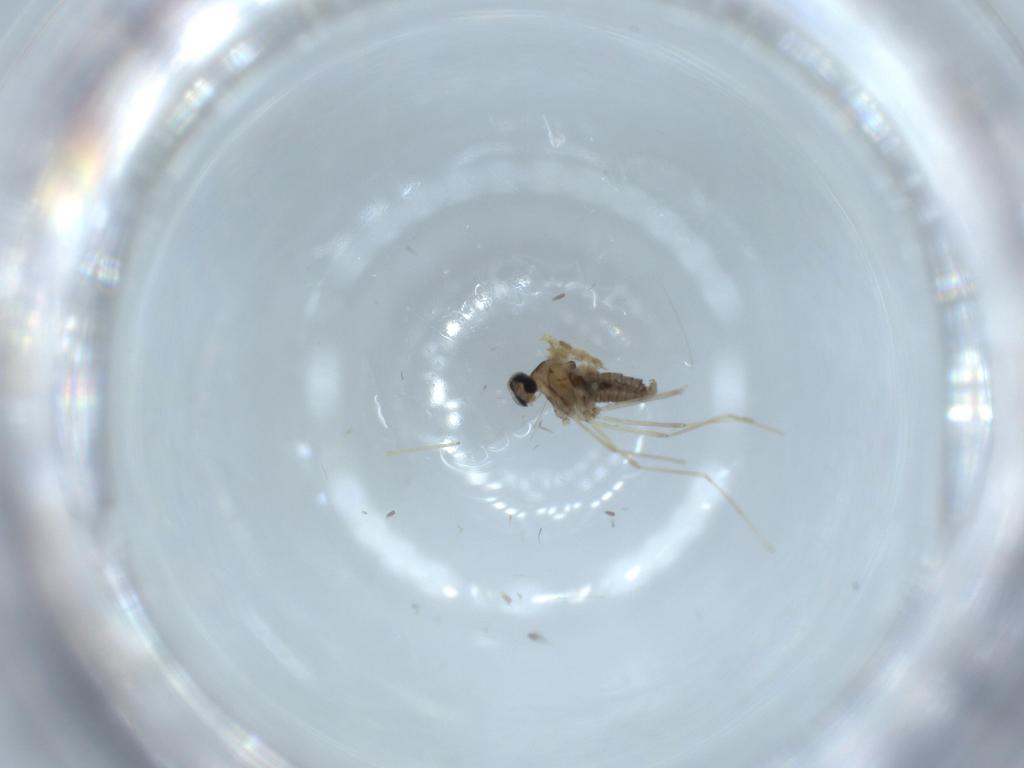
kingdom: Animalia
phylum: Arthropoda
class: Insecta
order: Diptera
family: Cecidomyiidae
